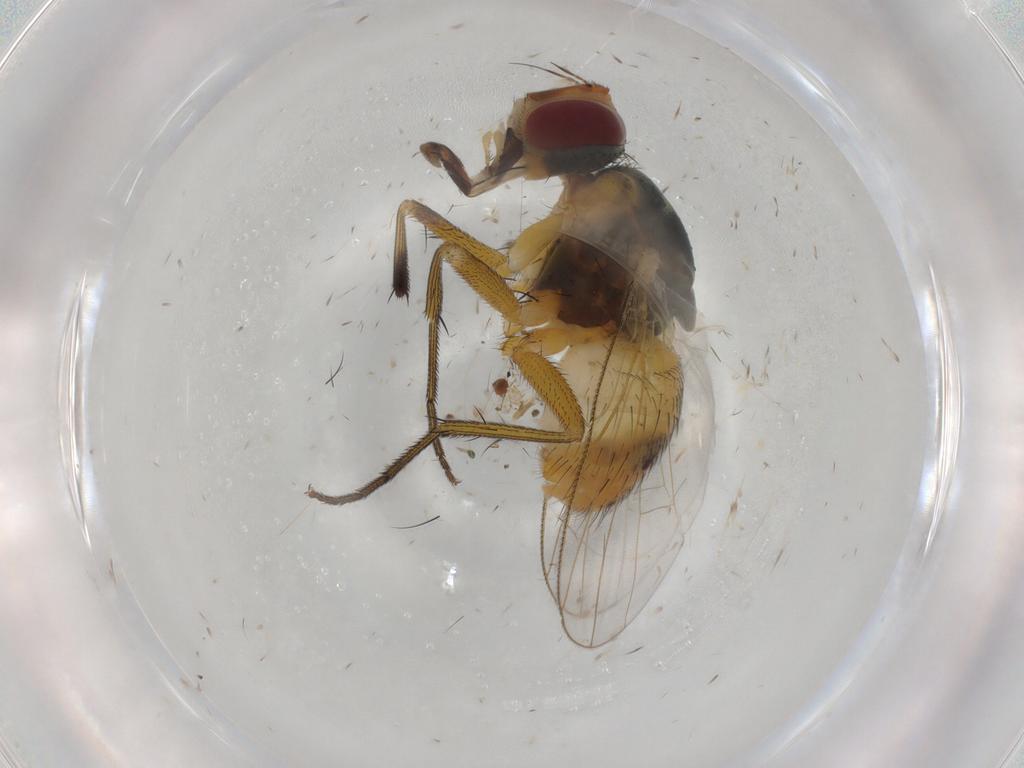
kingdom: Animalia
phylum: Arthropoda
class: Insecta
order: Diptera
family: Muscidae
